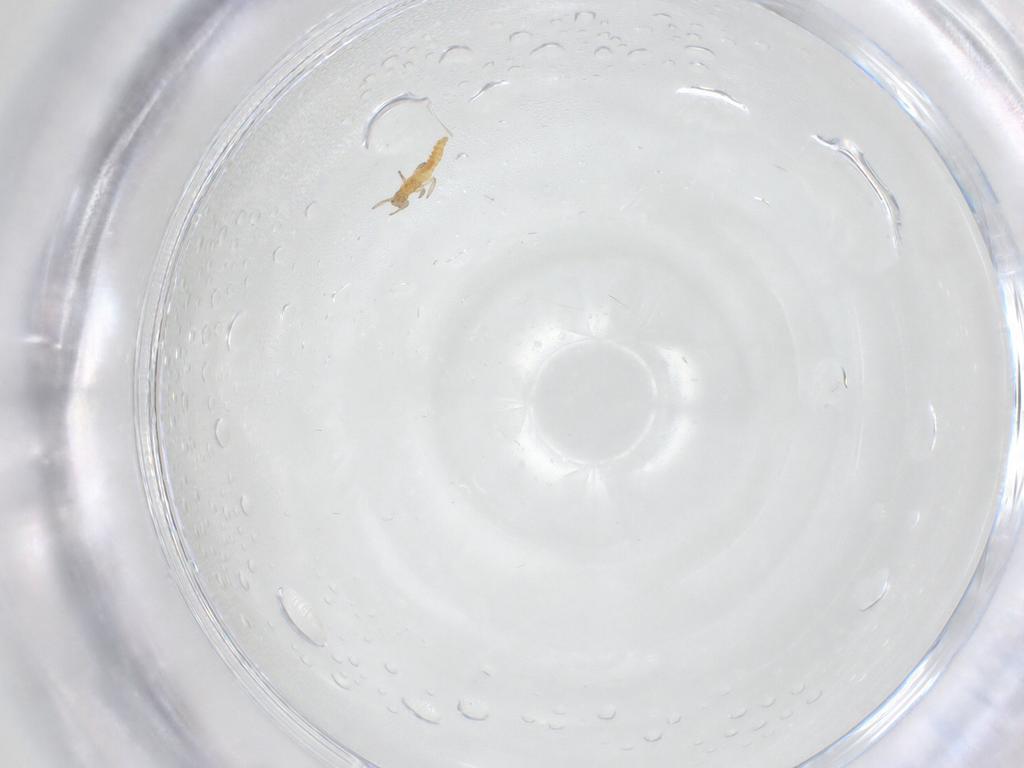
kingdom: Animalia
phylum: Arthropoda
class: Insecta
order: Thysanoptera
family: Aeolothripidae
